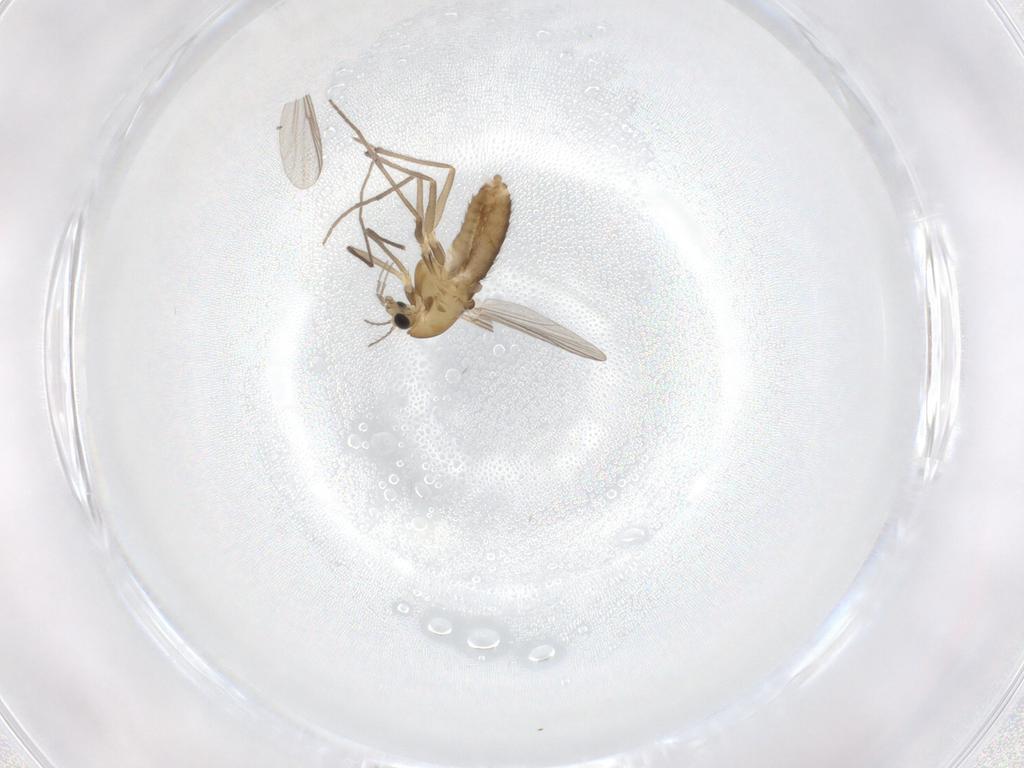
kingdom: Animalia
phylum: Arthropoda
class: Insecta
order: Diptera
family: Chironomidae
